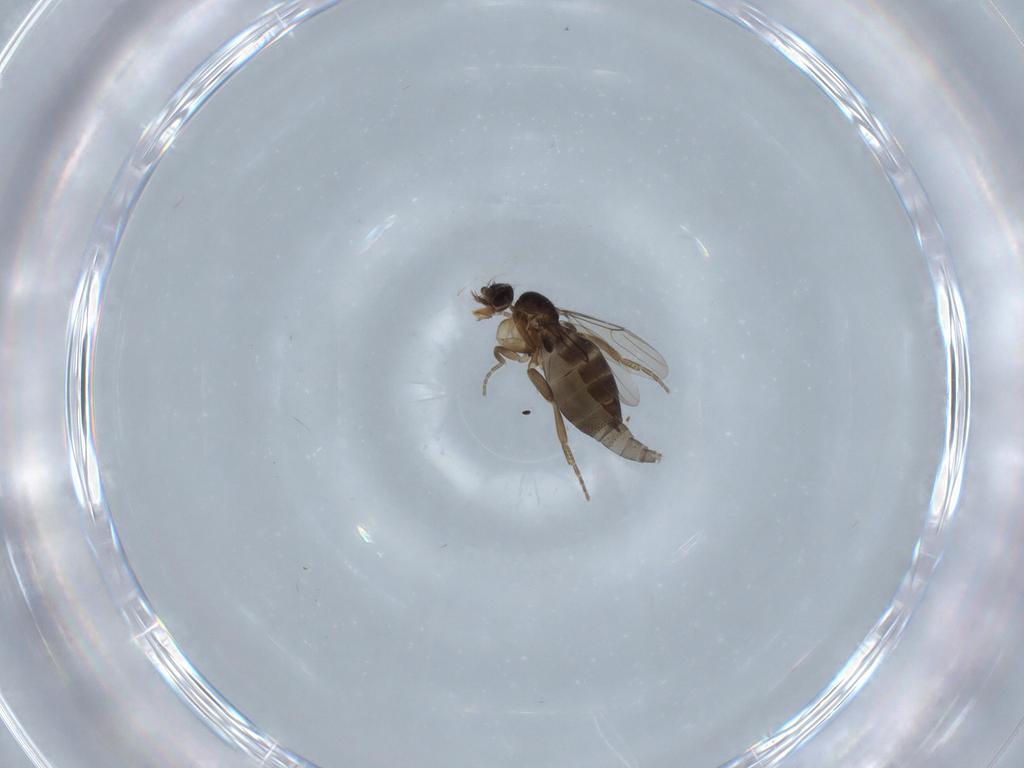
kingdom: Animalia
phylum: Arthropoda
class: Insecta
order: Diptera
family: Phoridae
